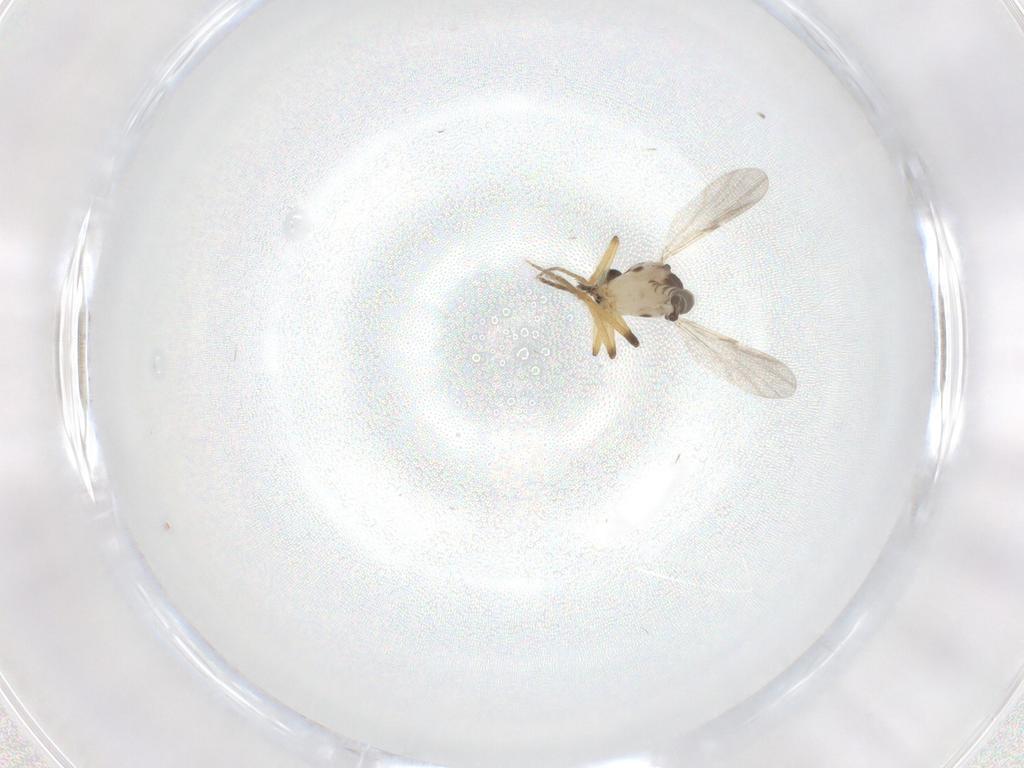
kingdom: Animalia
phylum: Arthropoda
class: Insecta
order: Diptera
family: Ceratopogonidae
